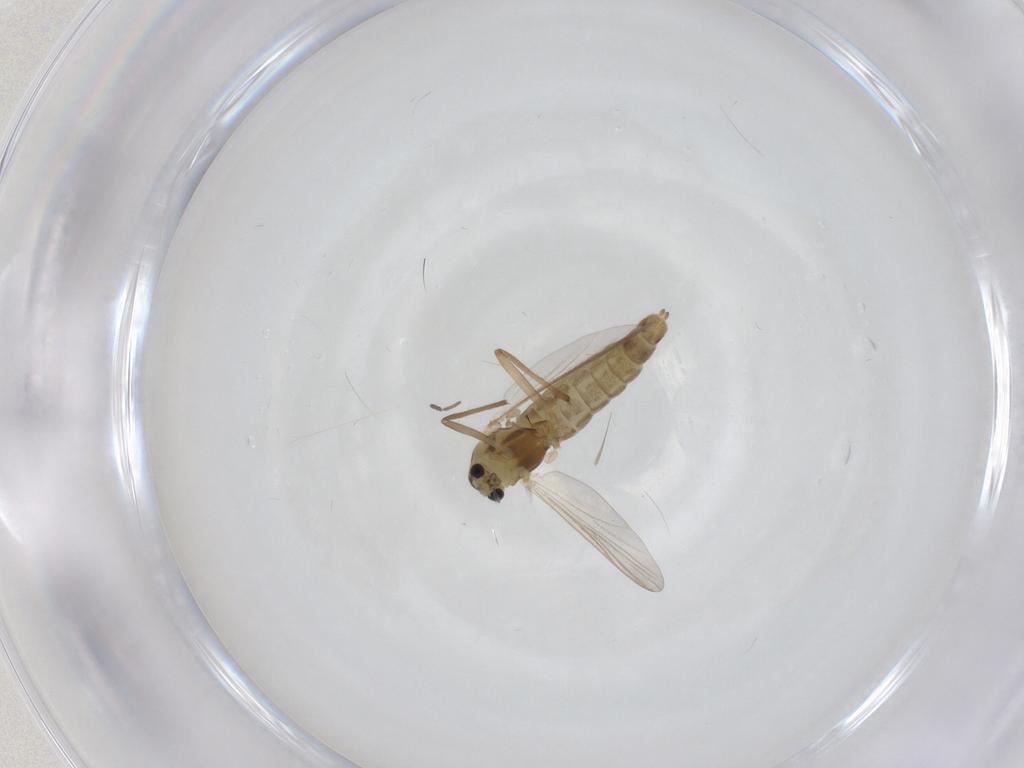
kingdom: Animalia
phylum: Arthropoda
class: Insecta
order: Diptera
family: Chironomidae
